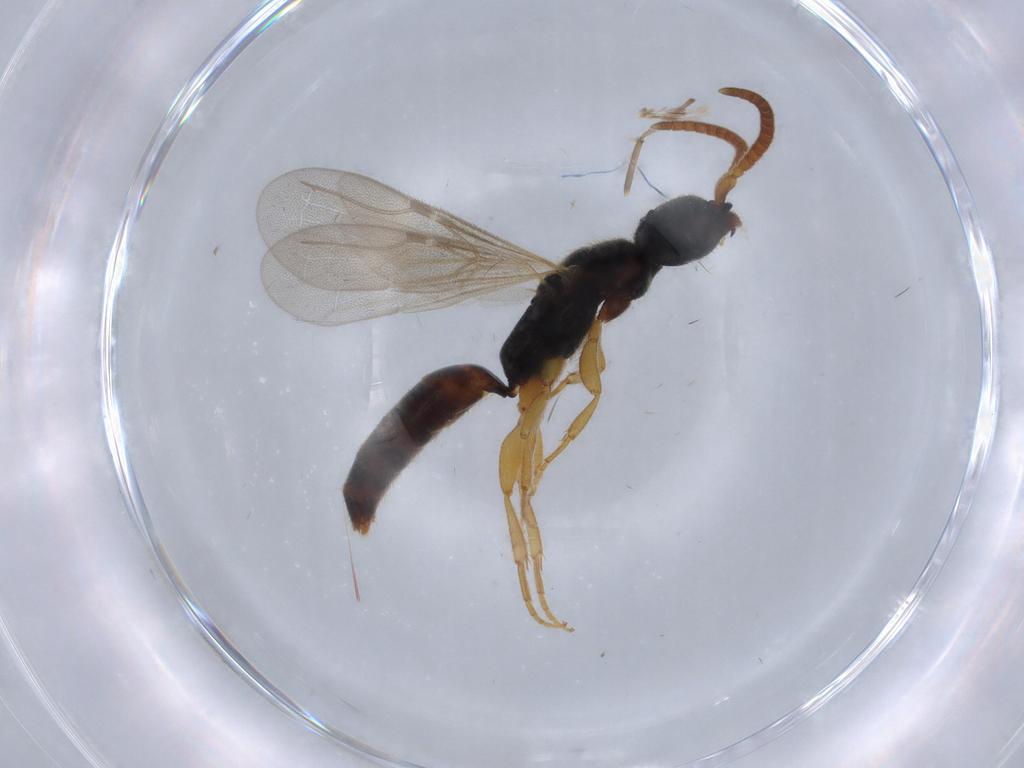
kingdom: Animalia
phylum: Arthropoda
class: Insecta
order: Hymenoptera
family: Bethylidae
